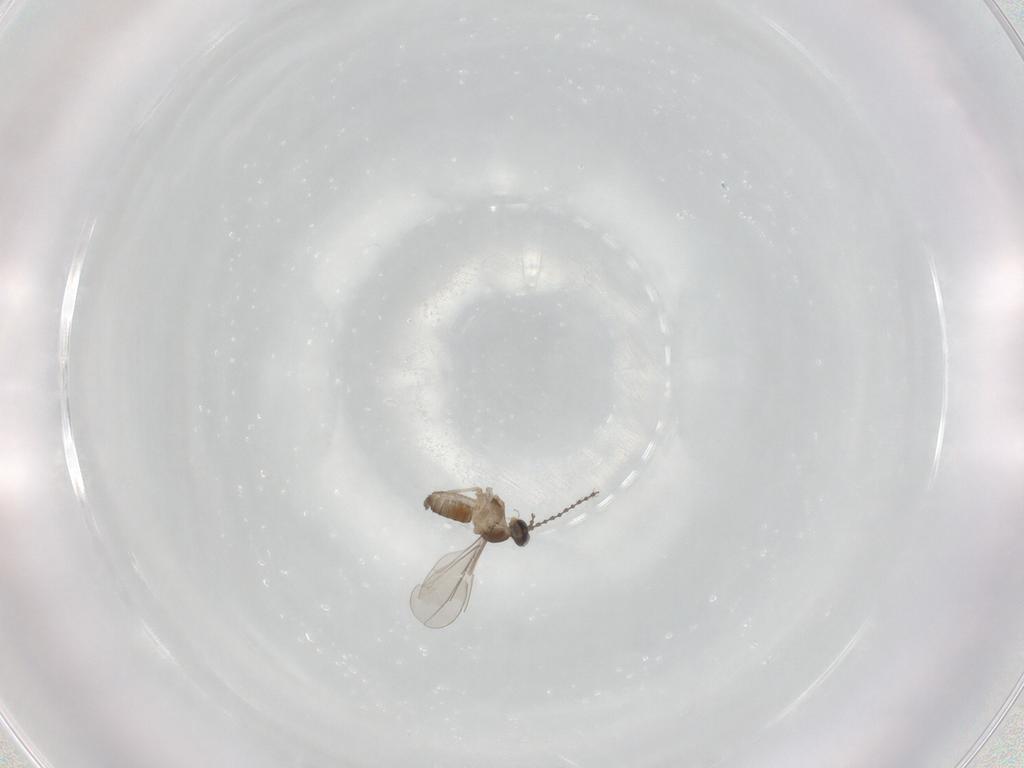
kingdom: Animalia
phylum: Arthropoda
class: Insecta
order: Diptera
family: Cecidomyiidae
